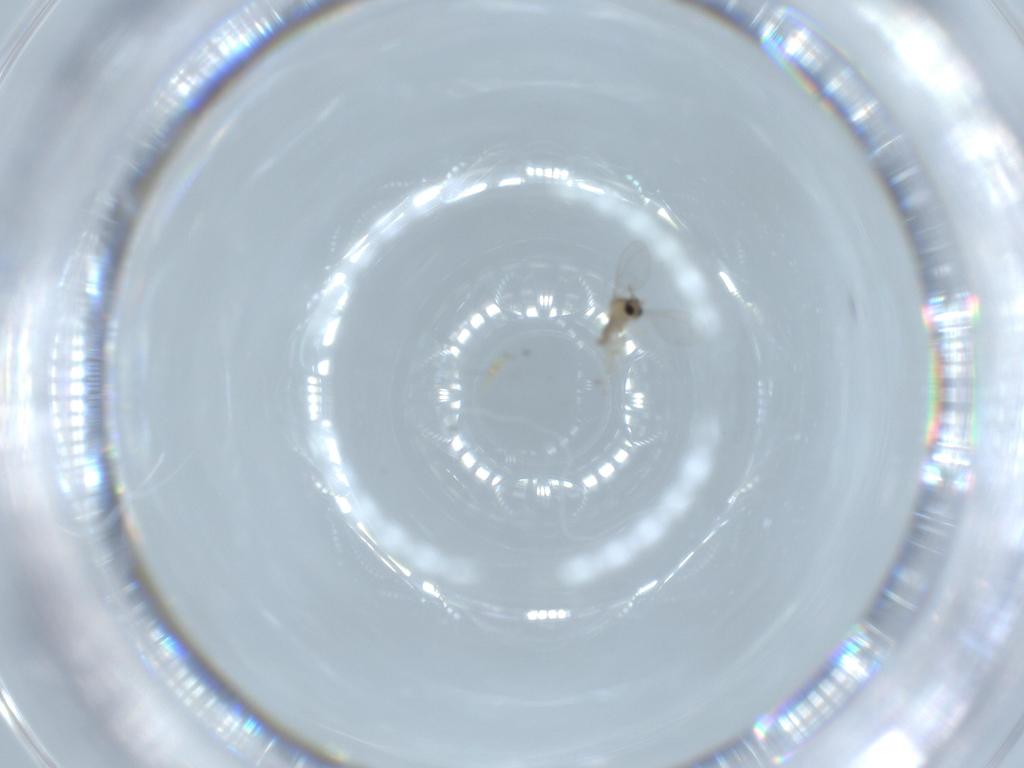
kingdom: Animalia
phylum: Arthropoda
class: Insecta
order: Diptera
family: Cecidomyiidae
